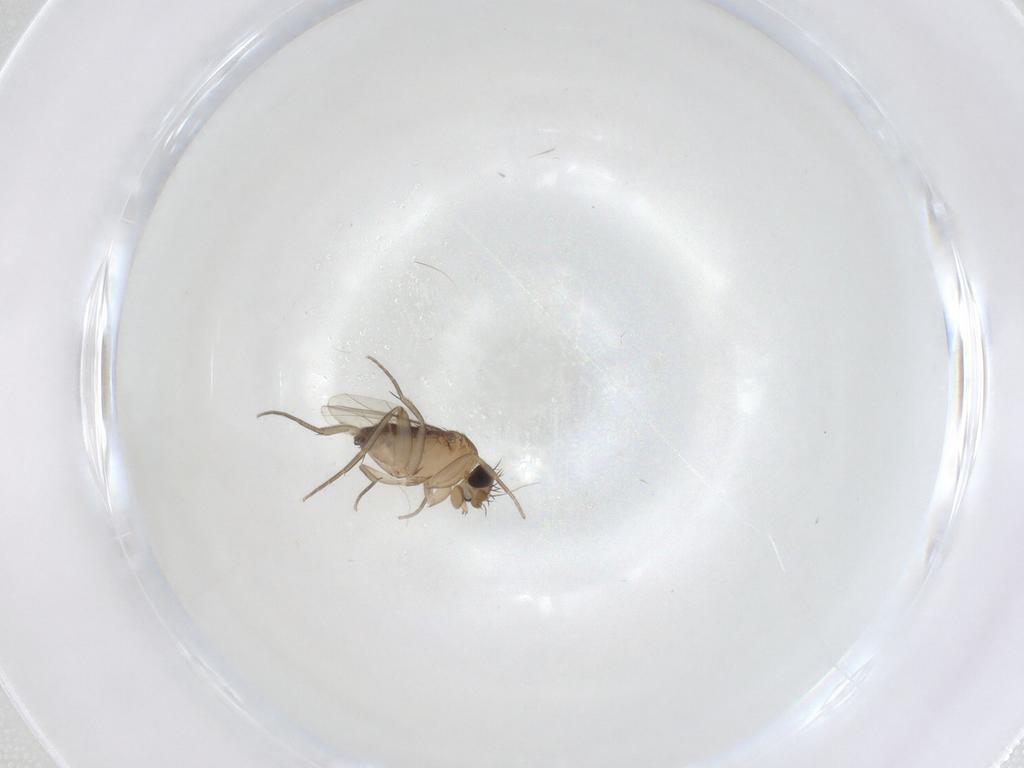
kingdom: Animalia
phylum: Arthropoda
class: Insecta
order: Diptera
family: Phoridae
